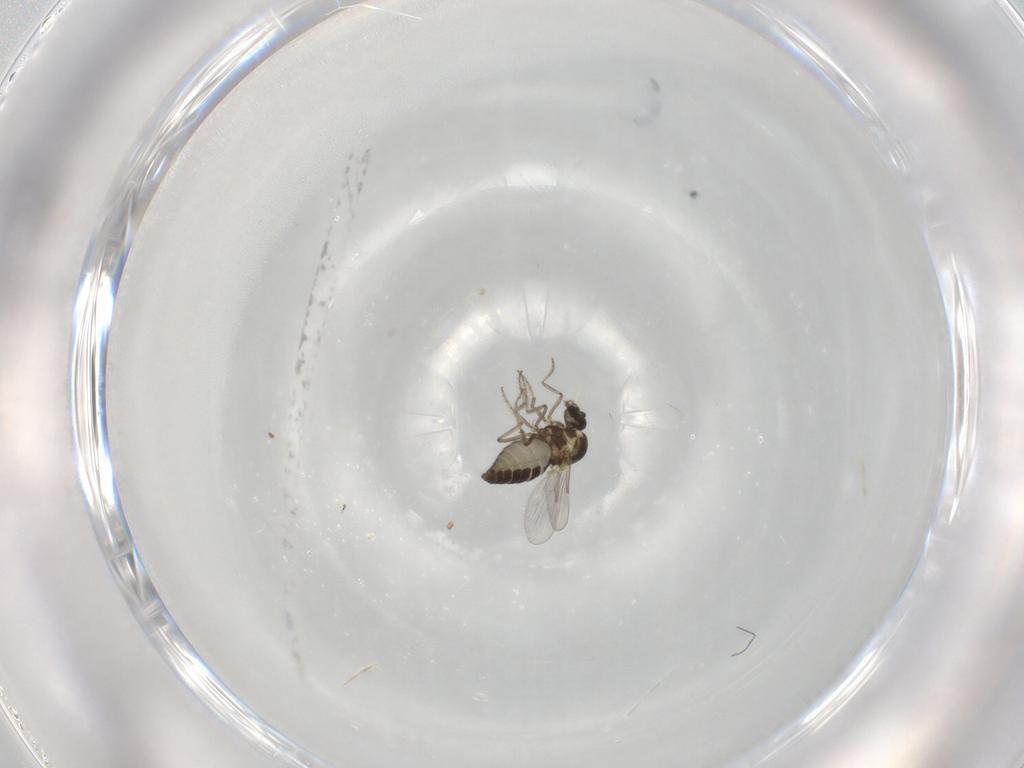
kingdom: Animalia
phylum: Arthropoda
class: Insecta
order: Diptera
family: Ceratopogonidae
